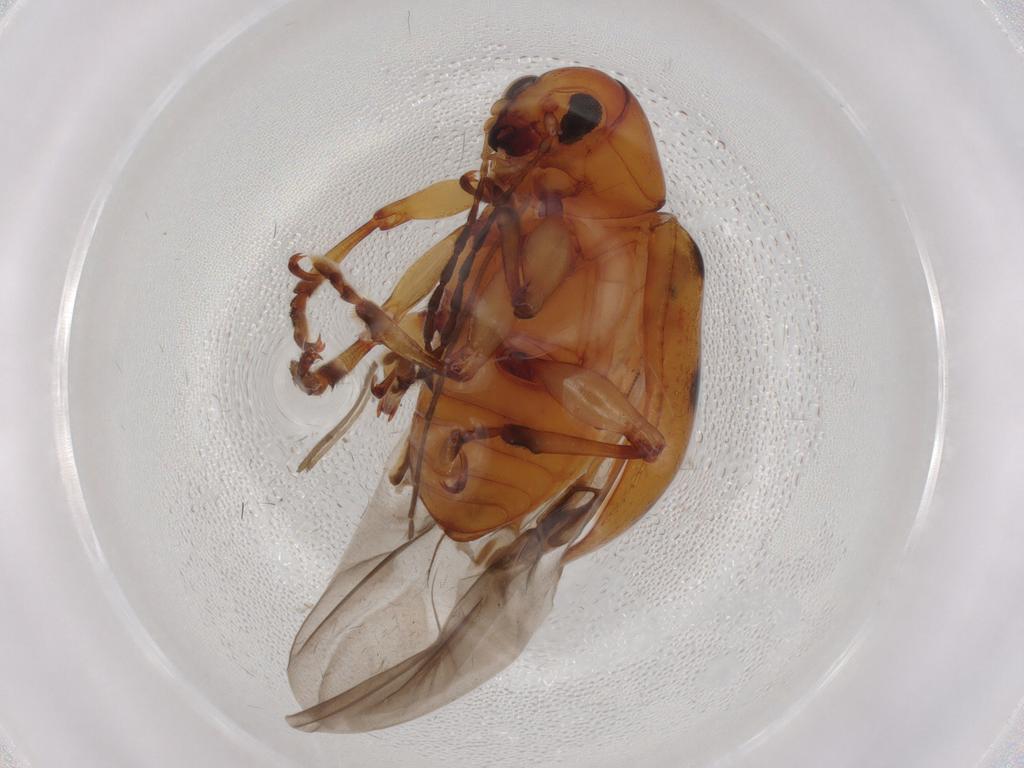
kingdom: Animalia
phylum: Arthropoda
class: Insecta
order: Coleoptera
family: Chrysomelidae
